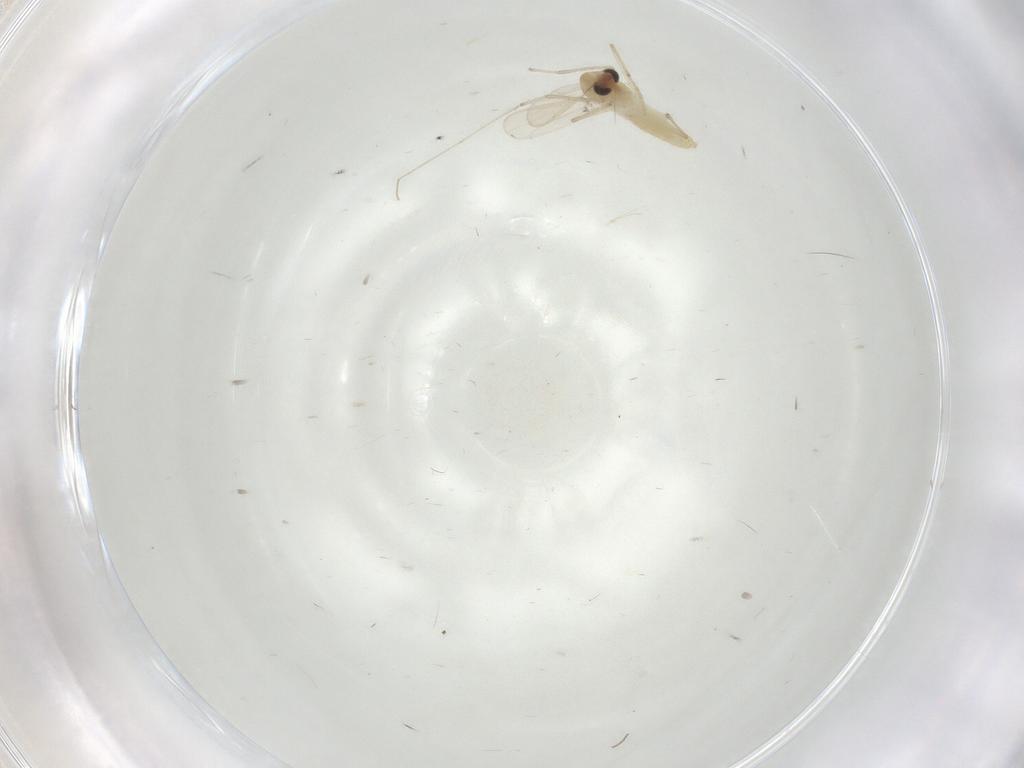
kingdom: Animalia
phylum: Arthropoda
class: Insecta
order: Diptera
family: Chironomidae
